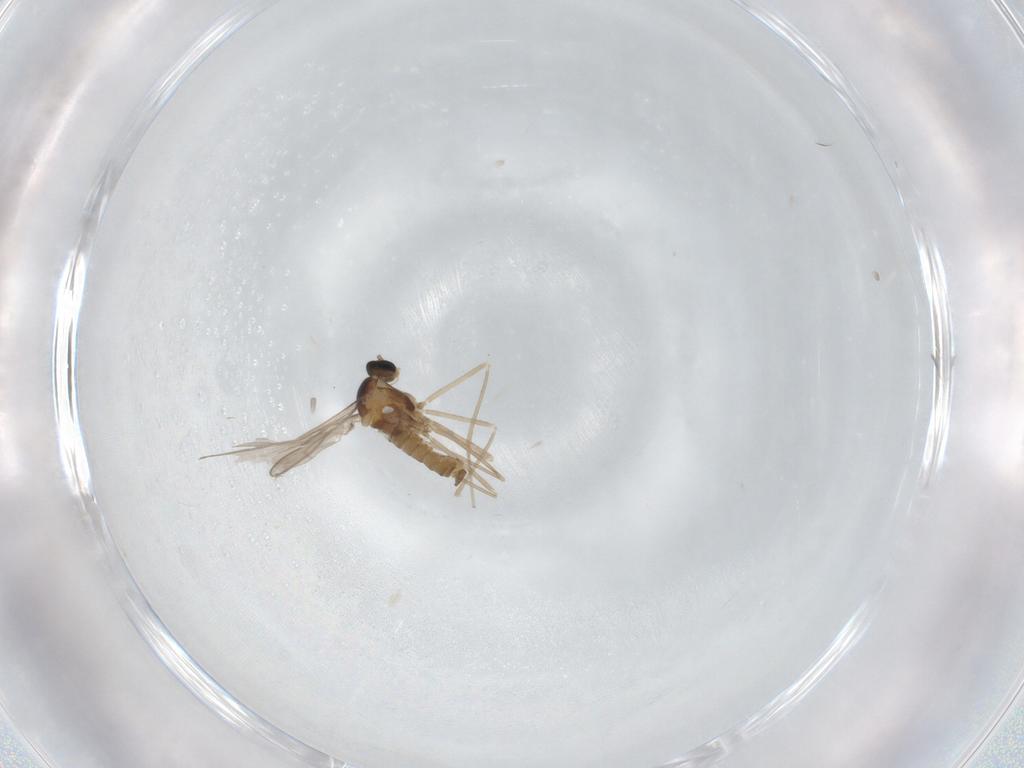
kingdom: Animalia
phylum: Arthropoda
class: Insecta
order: Diptera
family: Cecidomyiidae
